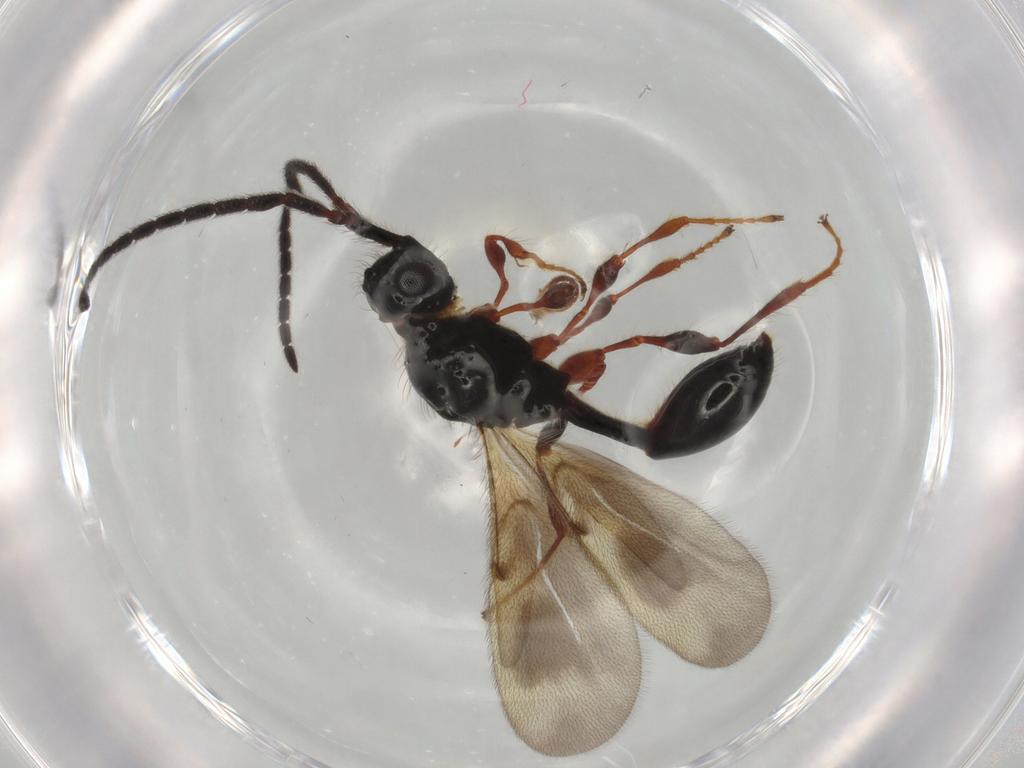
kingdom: Animalia
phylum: Arthropoda
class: Insecta
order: Hymenoptera
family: Diapriidae
